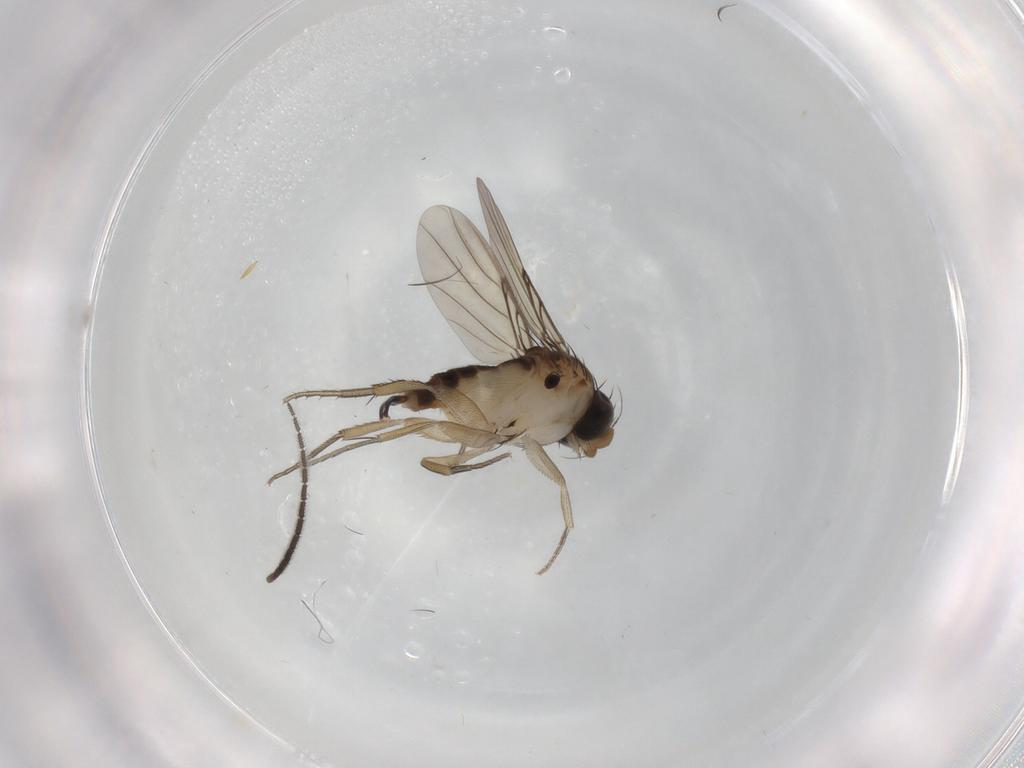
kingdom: Animalia
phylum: Arthropoda
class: Insecta
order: Diptera
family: Sciaridae
